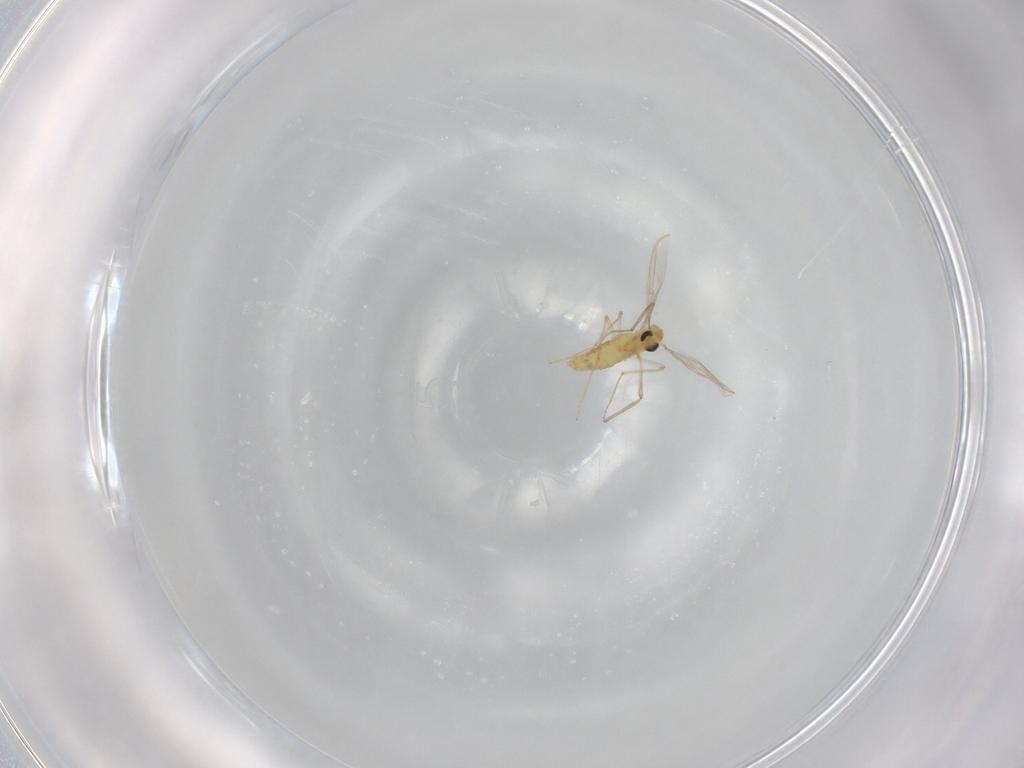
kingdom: Animalia
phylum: Arthropoda
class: Insecta
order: Diptera
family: Chironomidae
